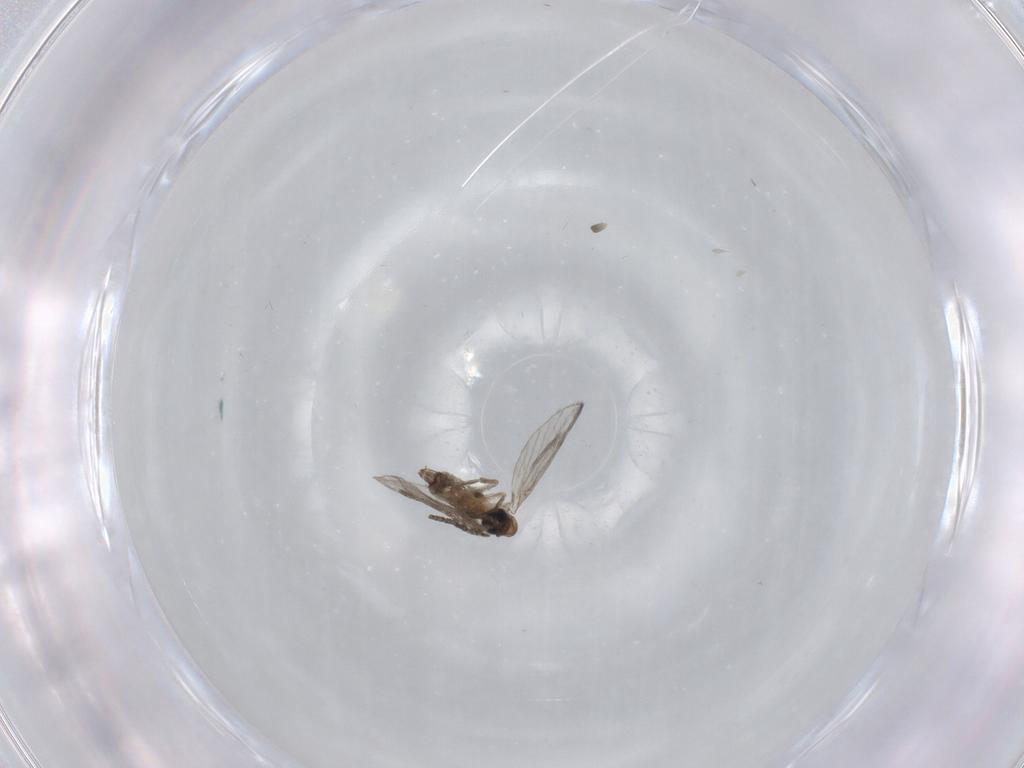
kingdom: Animalia
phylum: Arthropoda
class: Insecta
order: Diptera
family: Cecidomyiidae
